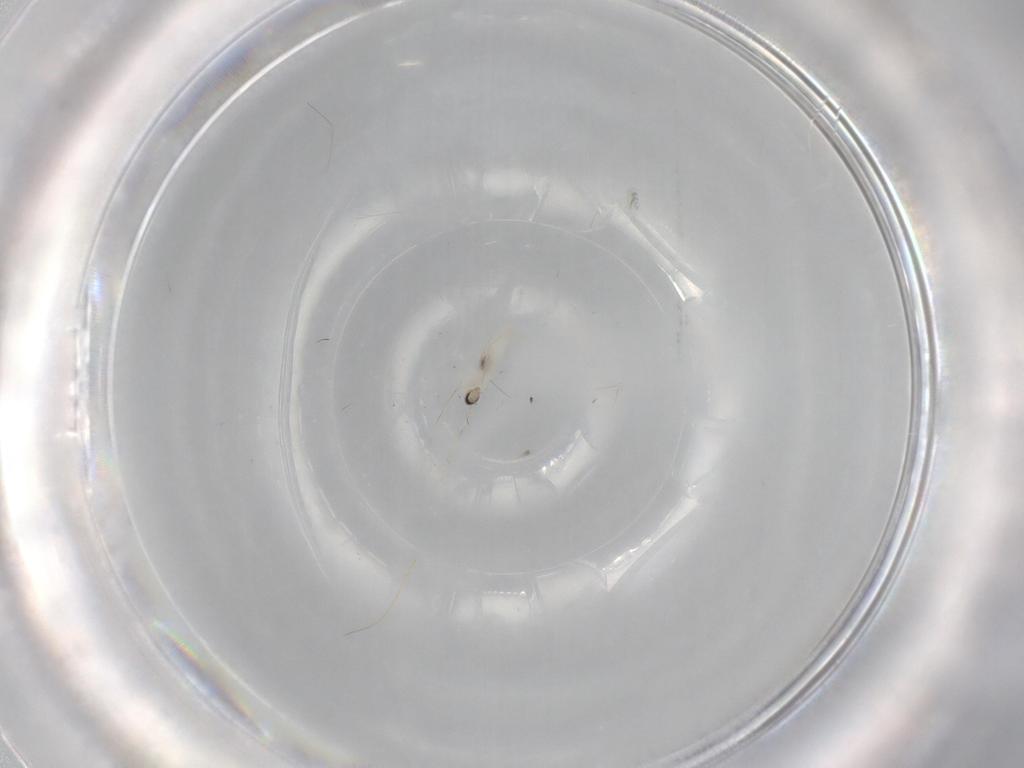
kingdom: Animalia
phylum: Arthropoda
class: Insecta
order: Diptera
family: Cecidomyiidae
